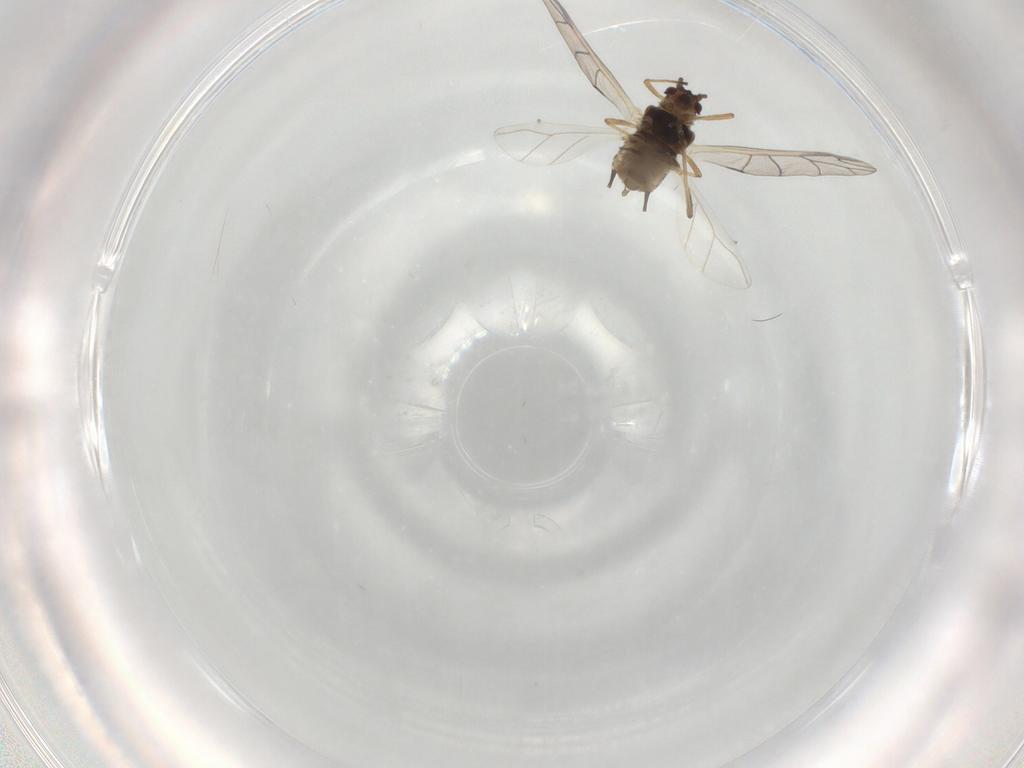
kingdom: Animalia
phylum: Arthropoda
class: Insecta
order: Hemiptera
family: Aphididae
